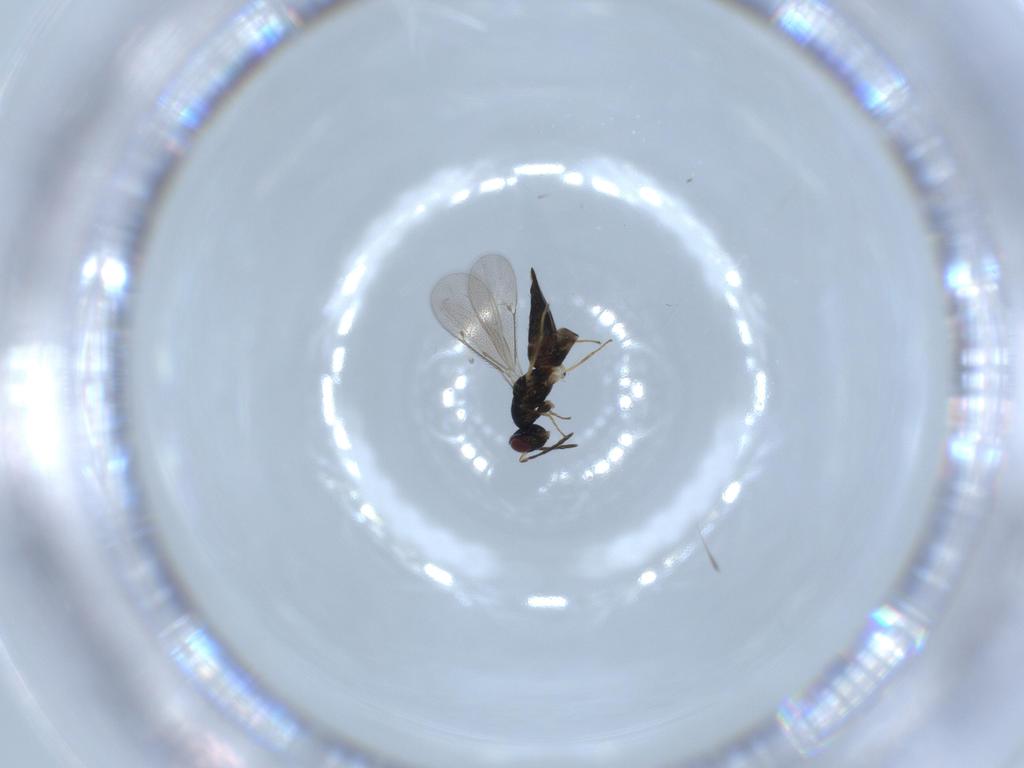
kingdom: Animalia
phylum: Arthropoda
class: Insecta
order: Hymenoptera
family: Eulophidae
